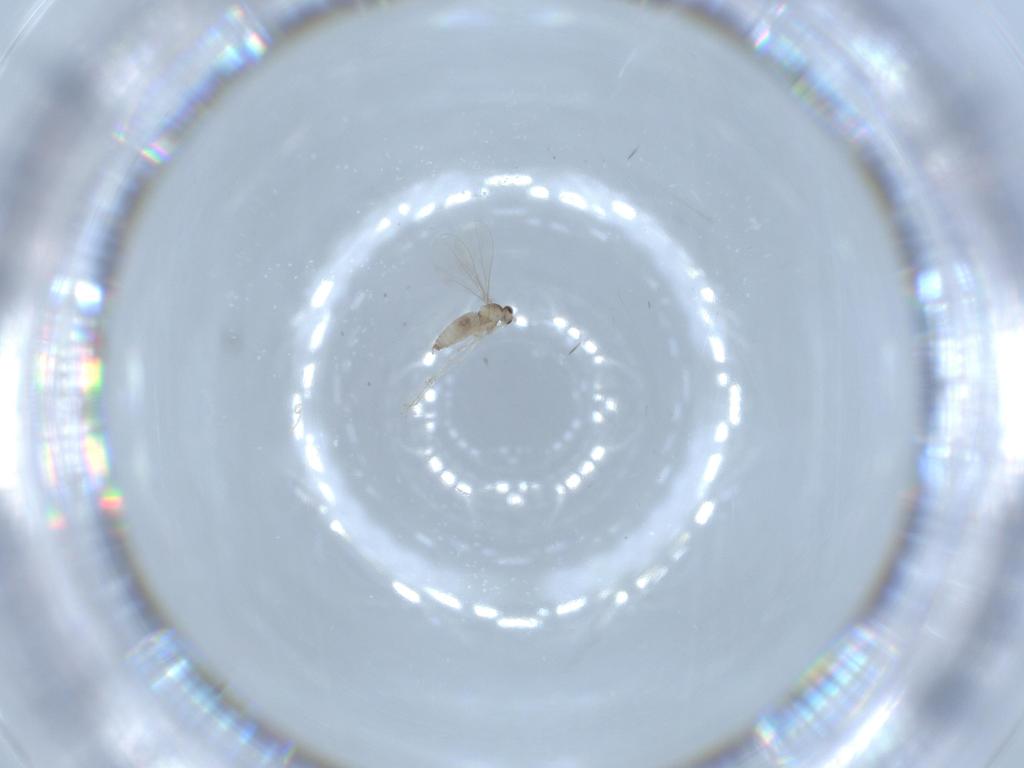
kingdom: Animalia
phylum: Arthropoda
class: Insecta
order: Diptera
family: Cecidomyiidae
